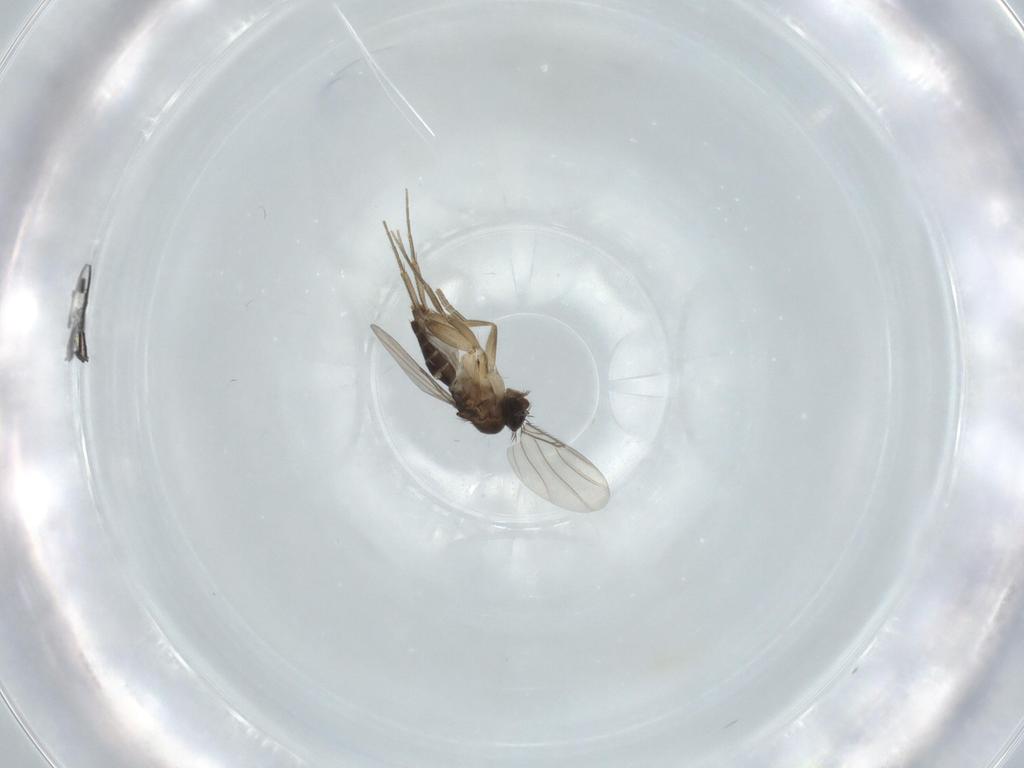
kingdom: Animalia
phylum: Arthropoda
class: Insecta
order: Diptera
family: Phoridae
